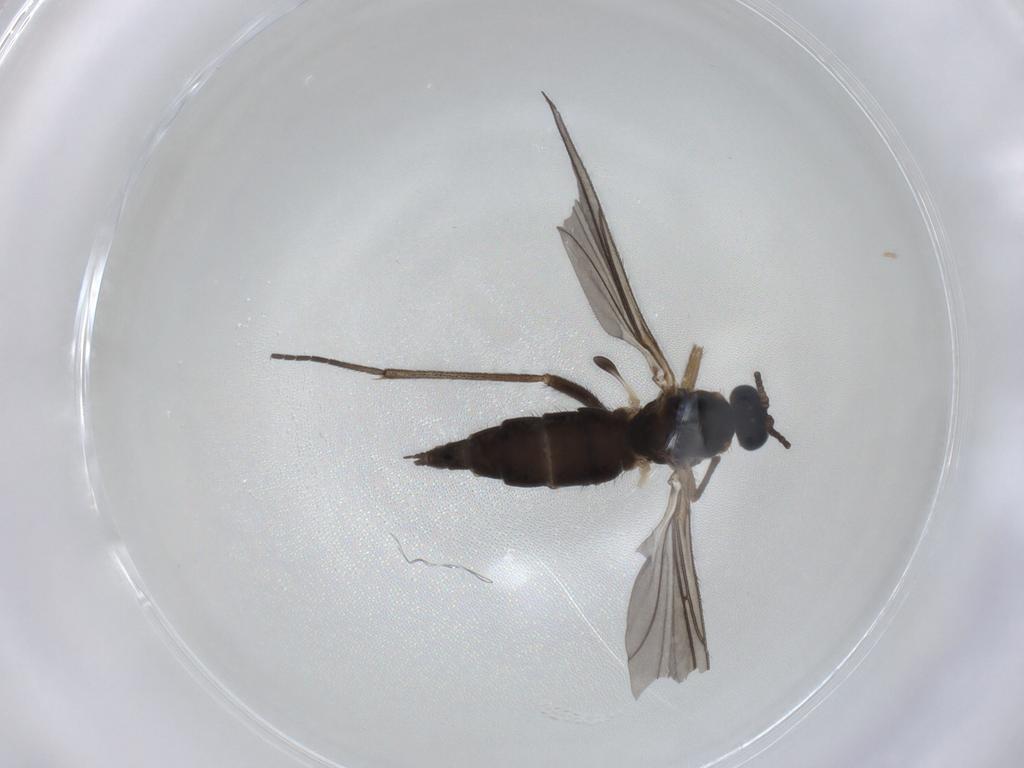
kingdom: Animalia
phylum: Arthropoda
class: Insecta
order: Diptera
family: Sciaridae
